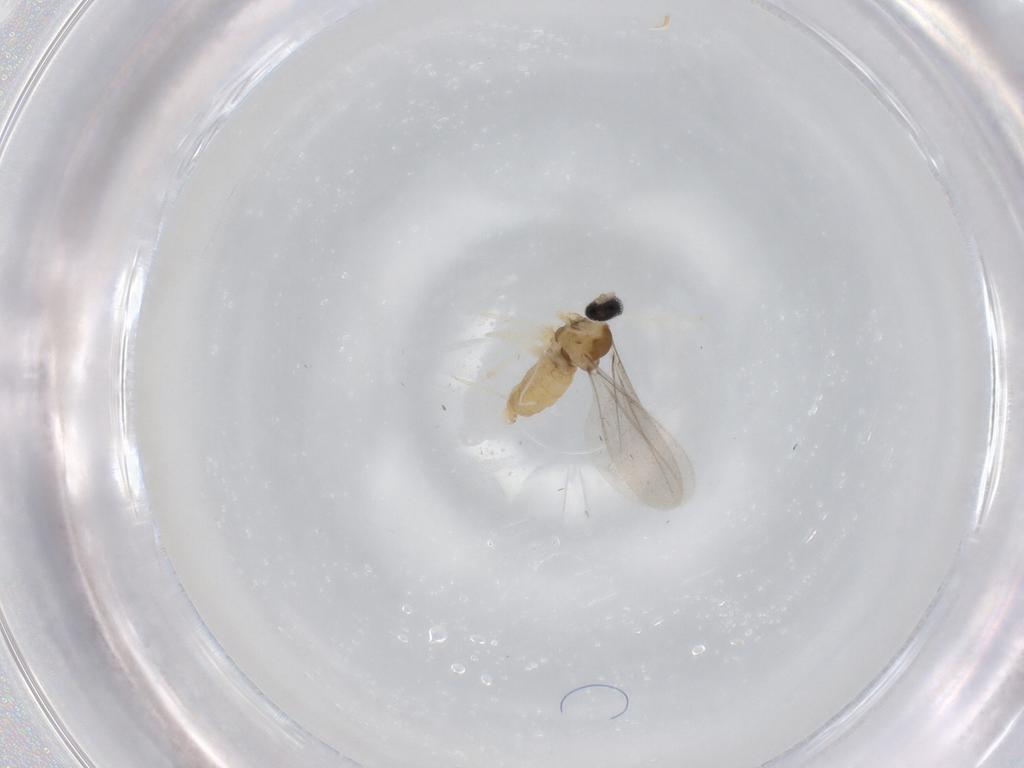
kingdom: Animalia
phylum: Arthropoda
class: Insecta
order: Diptera
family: Cecidomyiidae
